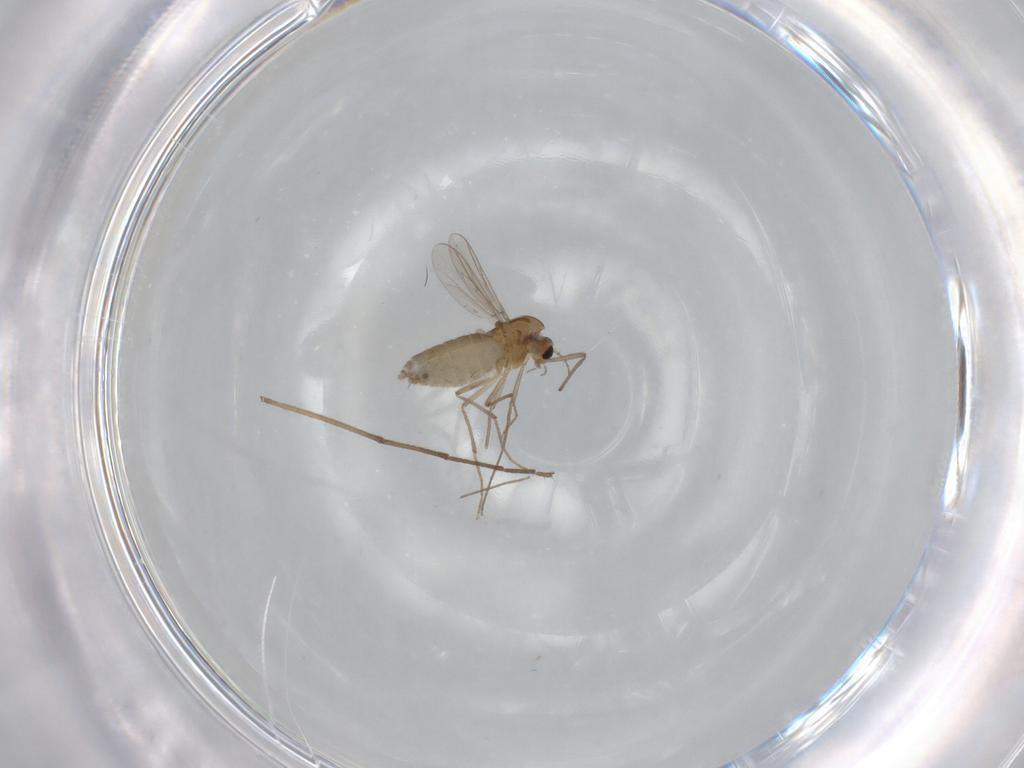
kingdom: Animalia
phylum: Arthropoda
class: Insecta
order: Diptera
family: Chironomidae
